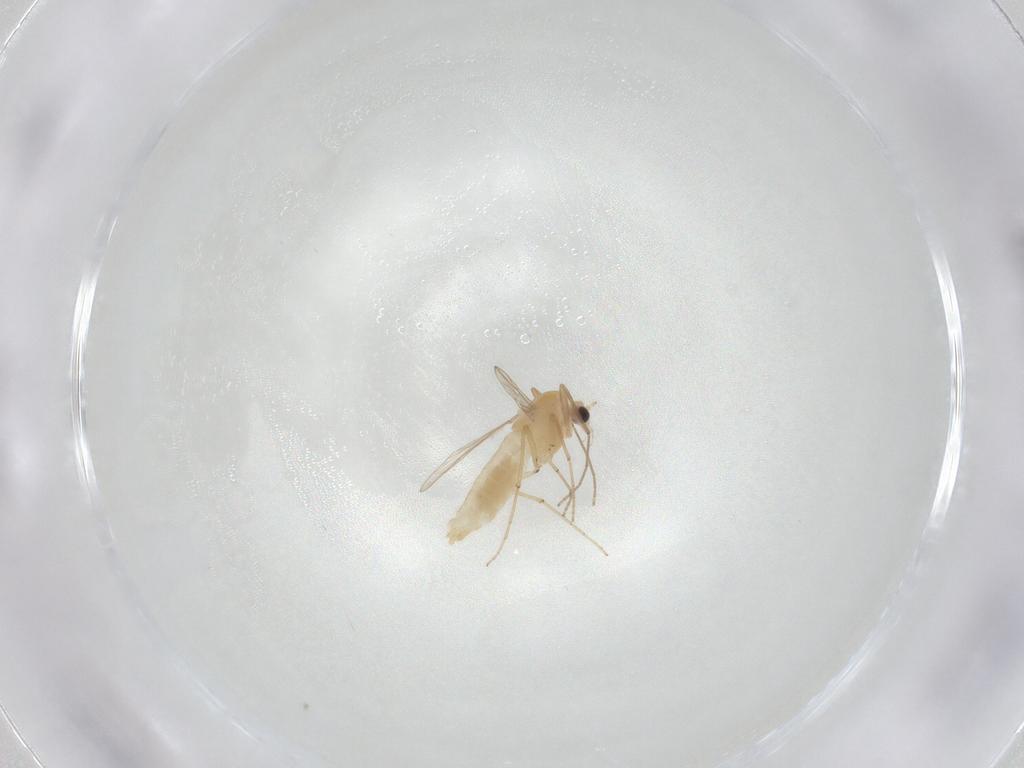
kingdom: Animalia
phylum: Arthropoda
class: Insecta
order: Diptera
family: Chironomidae
